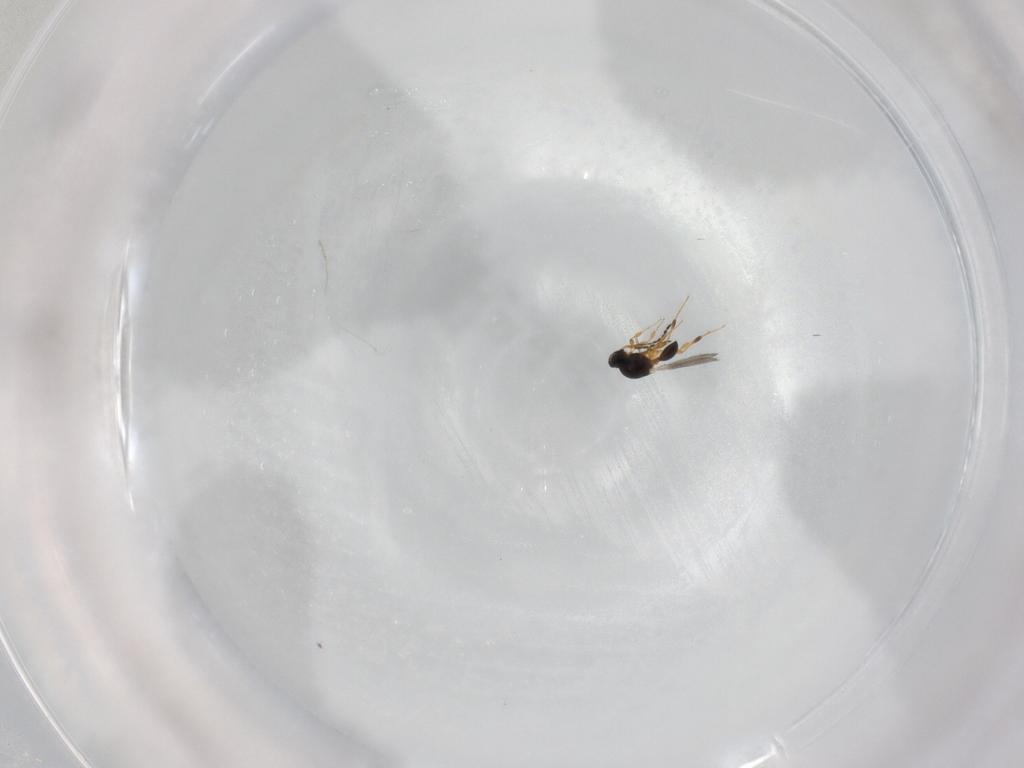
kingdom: Animalia
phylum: Arthropoda
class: Insecta
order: Hymenoptera
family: Platygastridae
